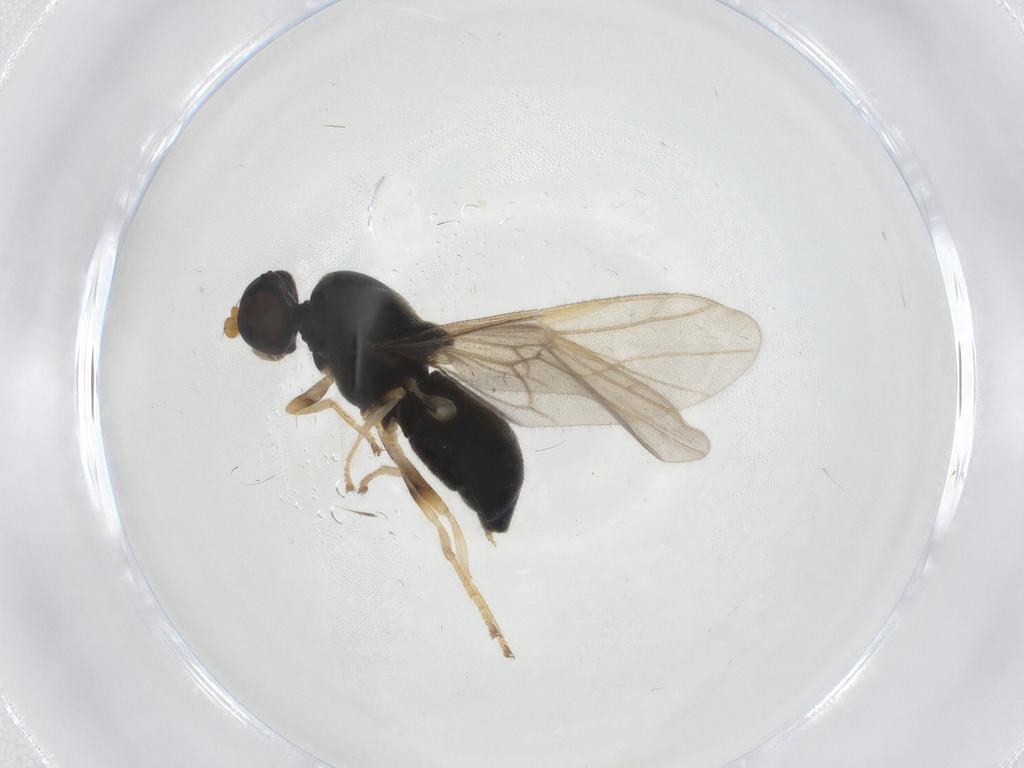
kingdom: Animalia
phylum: Arthropoda
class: Insecta
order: Diptera
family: Stratiomyidae
